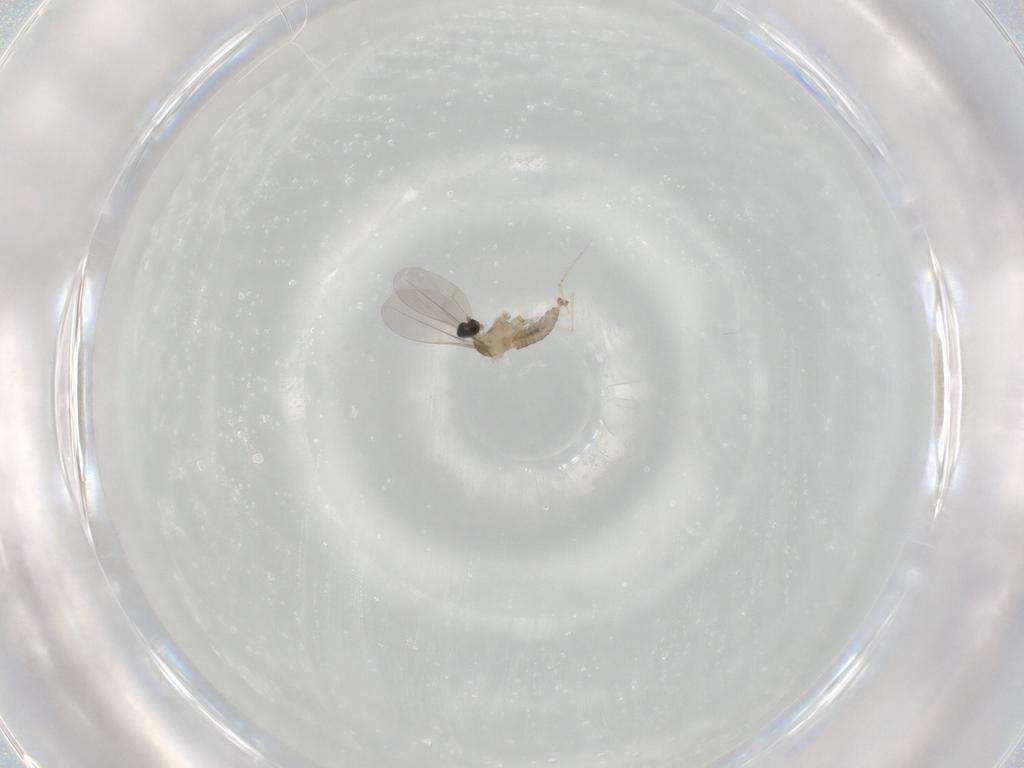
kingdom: Animalia
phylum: Arthropoda
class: Insecta
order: Diptera
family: Cecidomyiidae
